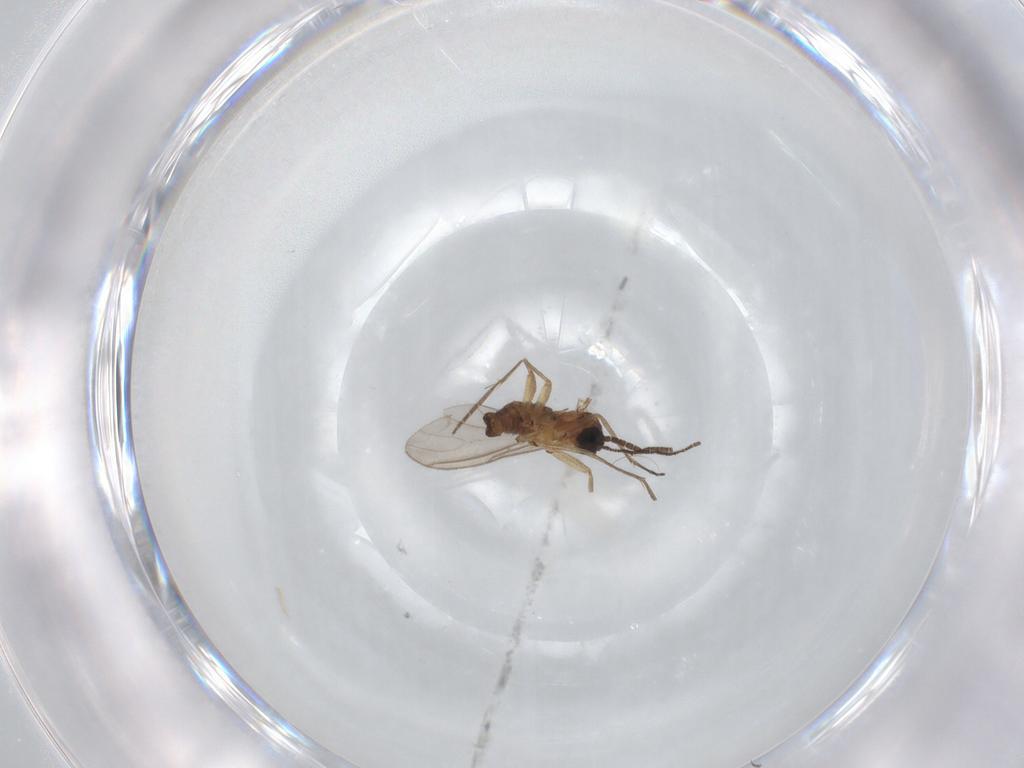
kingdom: Animalia
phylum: Arthropoda
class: Insecta
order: Diptera
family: Sciaridae
